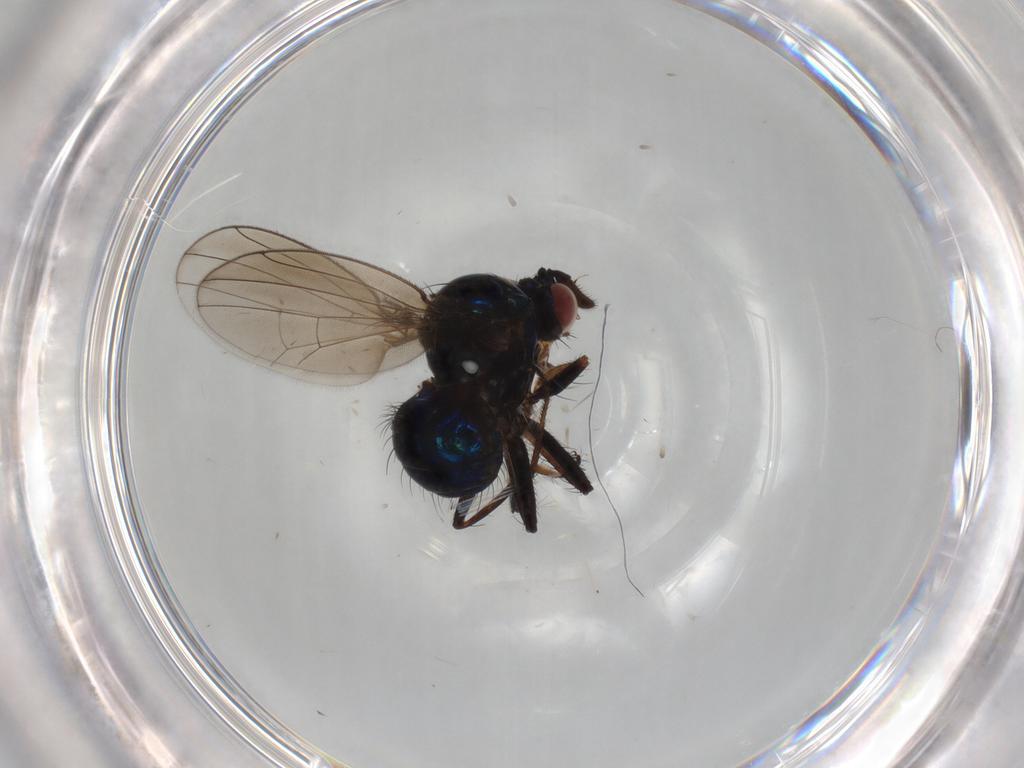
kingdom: Animalia
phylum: Arthropoda
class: Insecta
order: Diptera
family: Ephydridae
